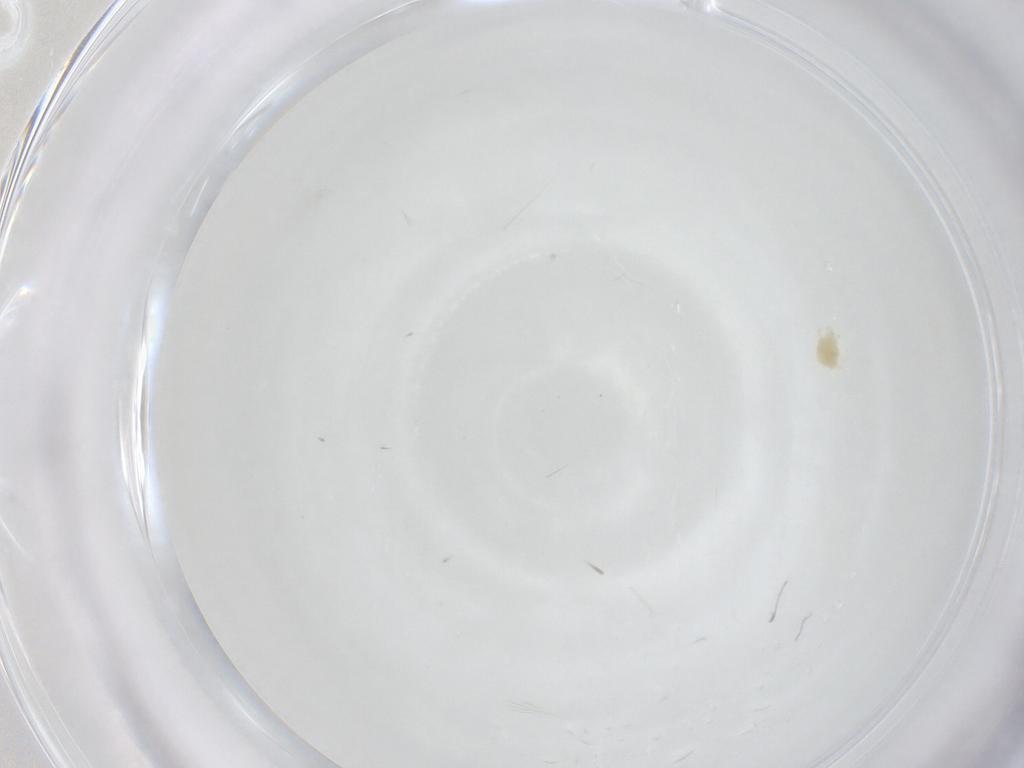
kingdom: Animalia
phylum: Arthropoda
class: Arachnida
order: Trombidiformes
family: Tetranychidae
